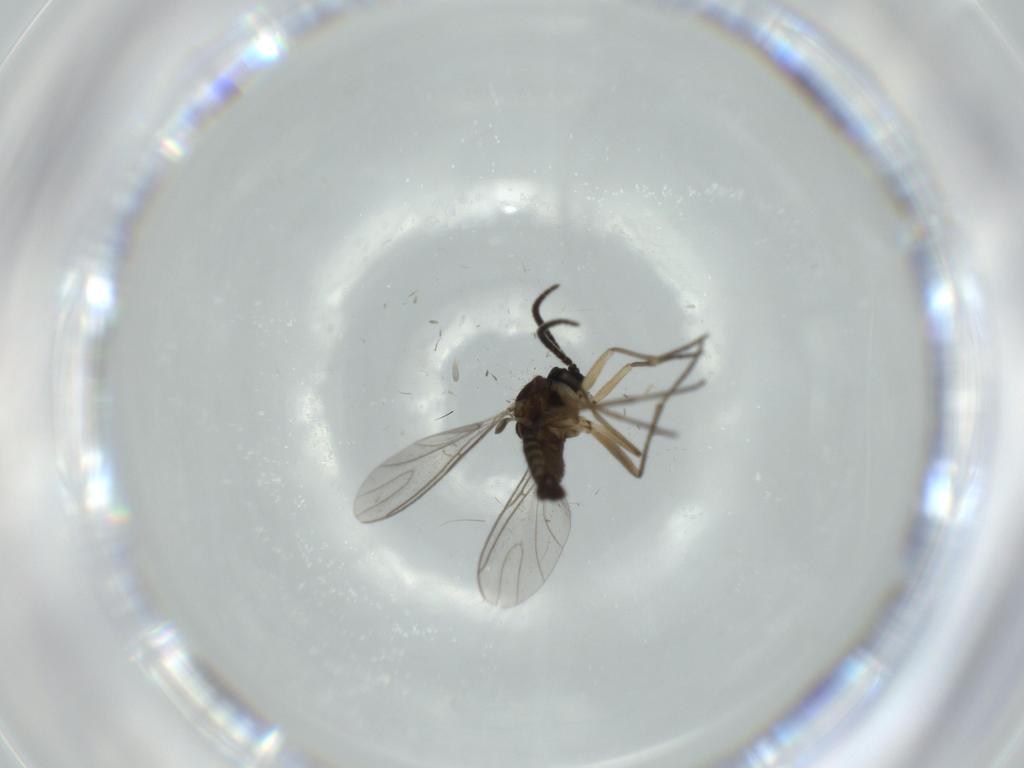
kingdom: Animalia
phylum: Arthropoda
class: Insecta
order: Diptera
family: Sciaridae
